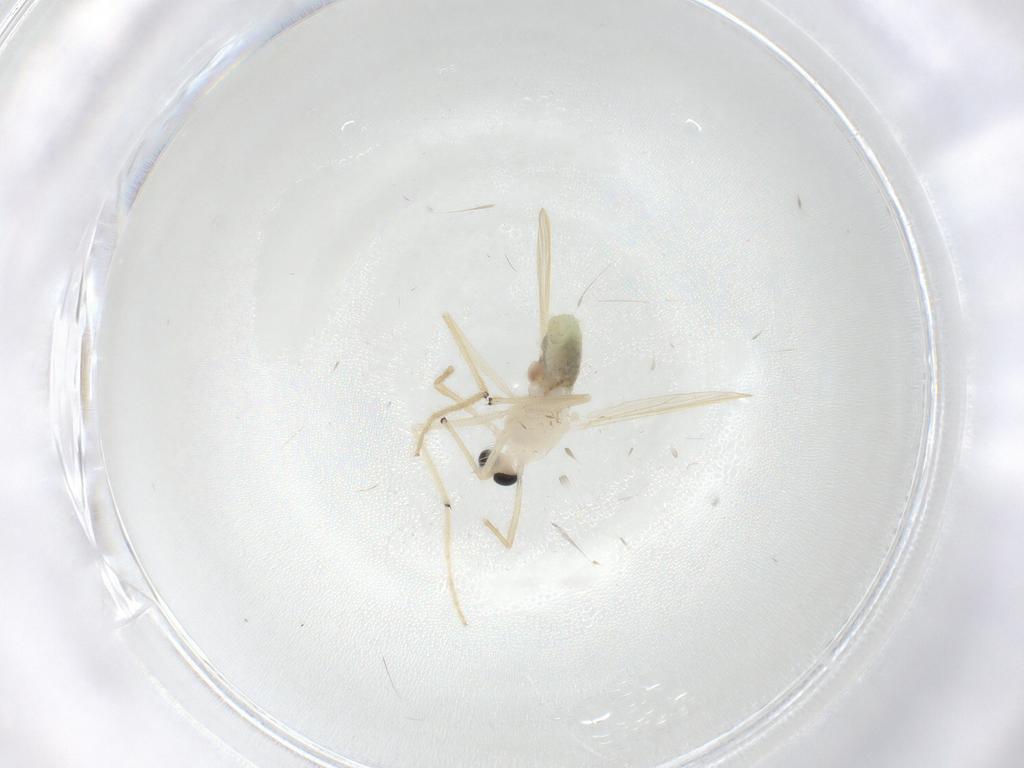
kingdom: Animalia
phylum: Arthropoda
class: Insecta
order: Diptera
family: Chironomidae
